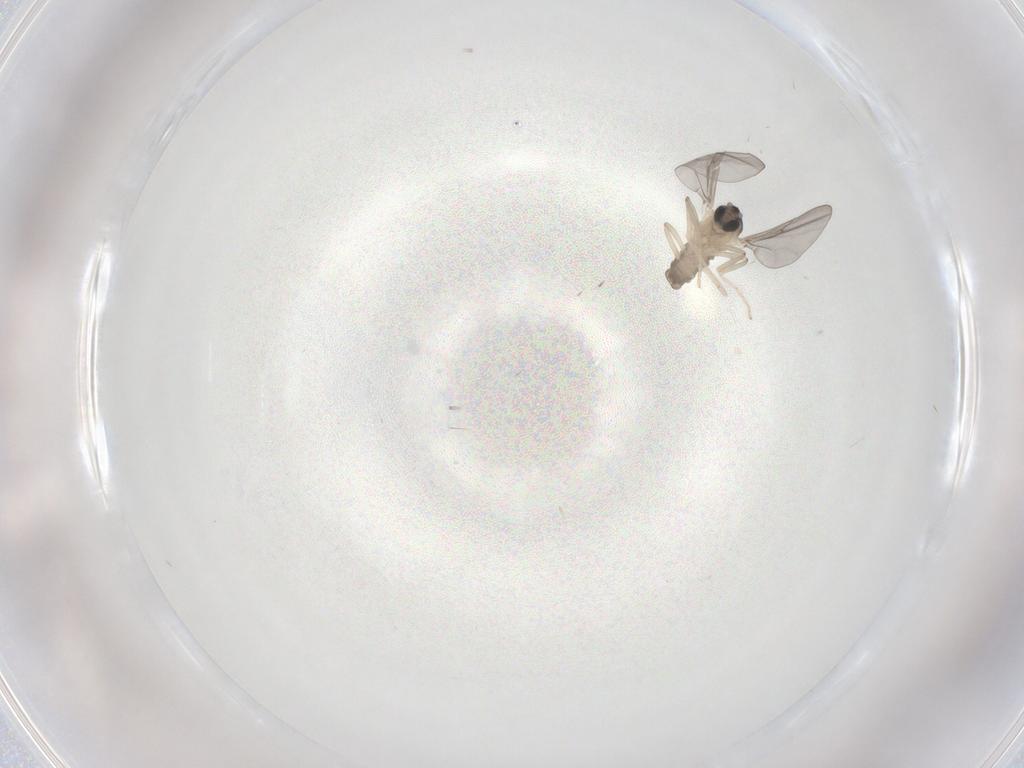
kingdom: Animalia
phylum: Arthropoda
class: Insecta
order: Diptera
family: Cecidomyiidae
